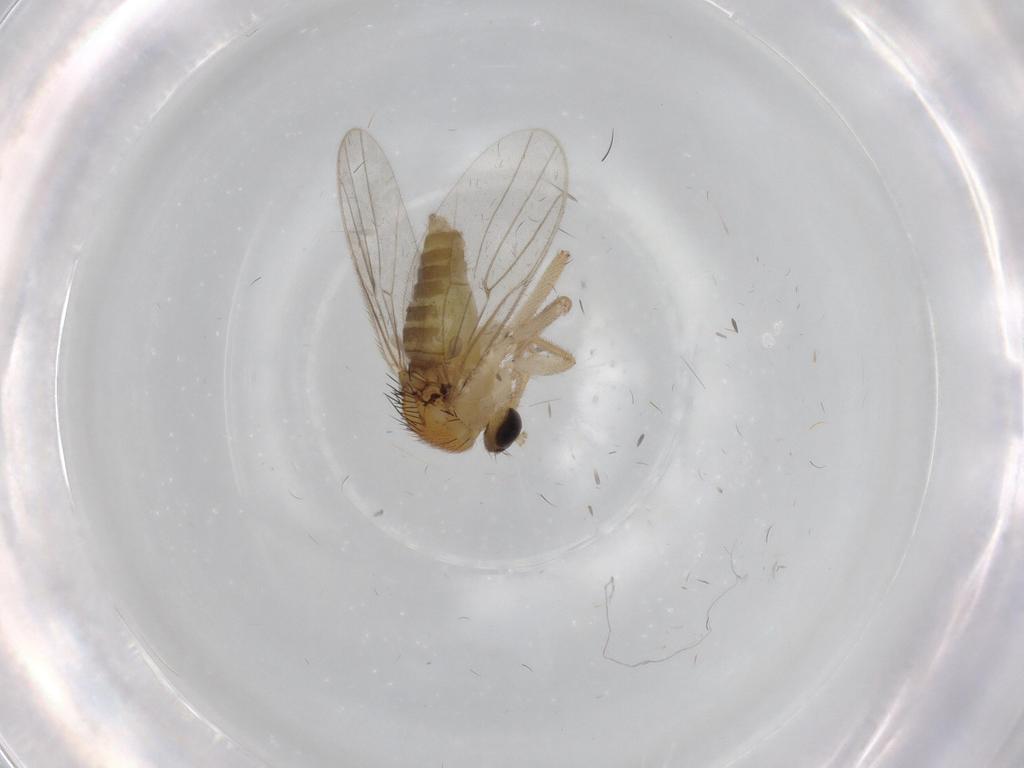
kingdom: Animalia
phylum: Arthropoda
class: Insecta
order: Diptera
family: Hybotidae
